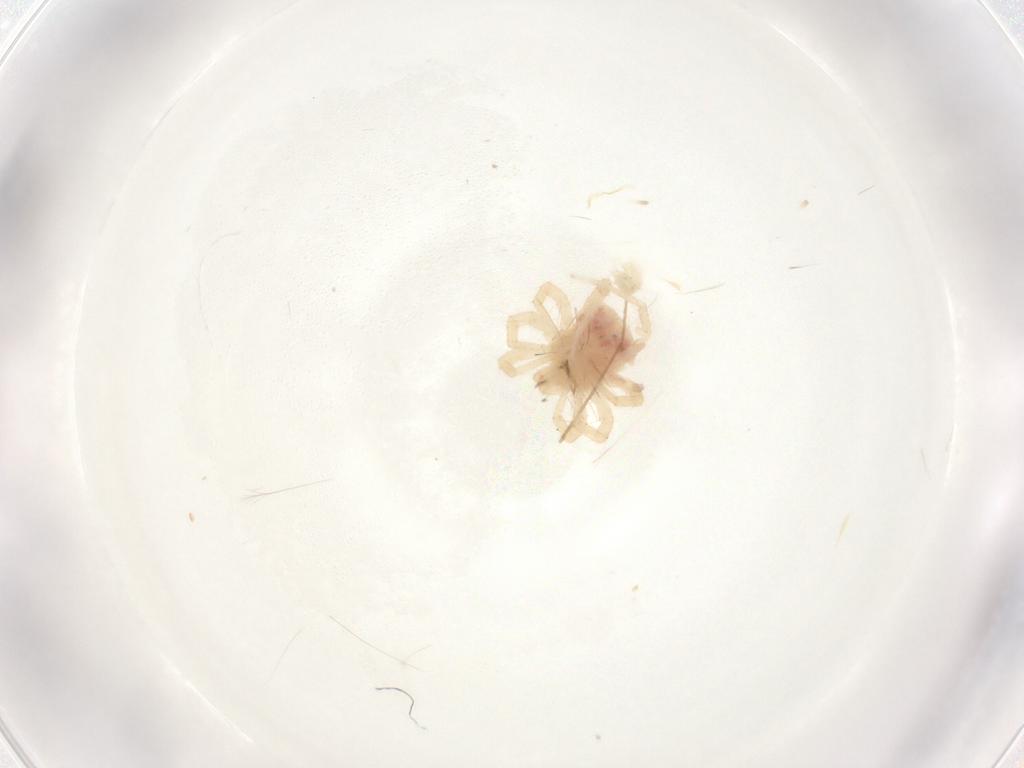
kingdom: Animalia
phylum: Arthropoda
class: Arachnida
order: Trombidiformes
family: Anystidae
